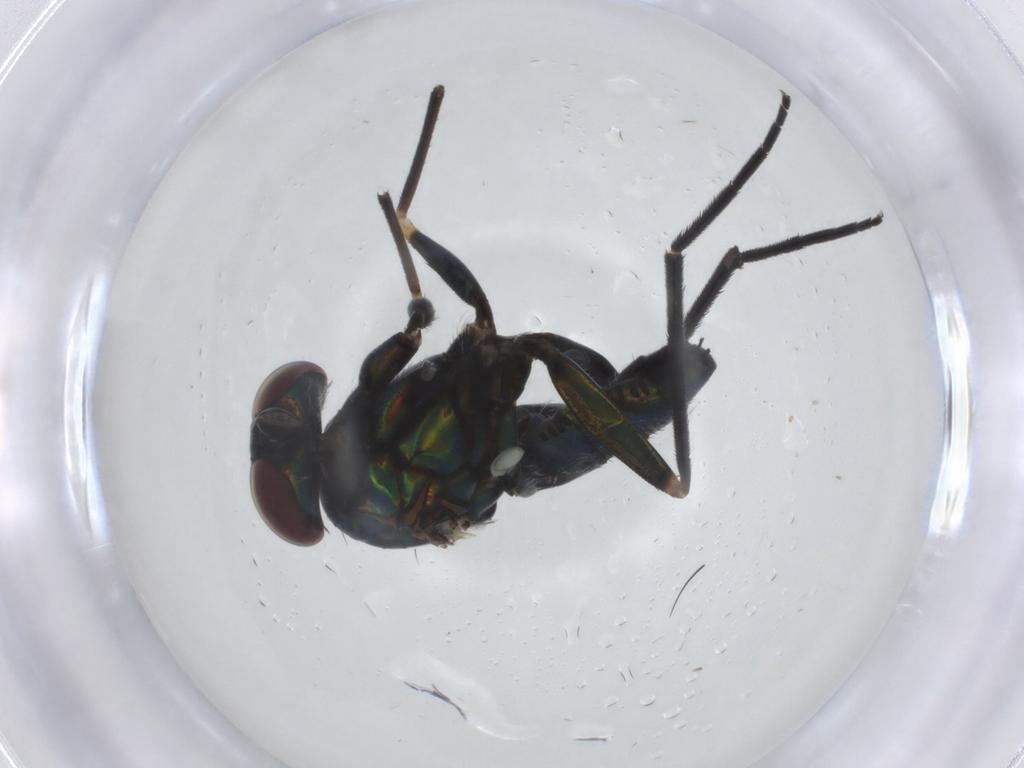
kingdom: Animalia
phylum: Arthropoda
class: Insecta
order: Diptera
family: Dolichopodidae
